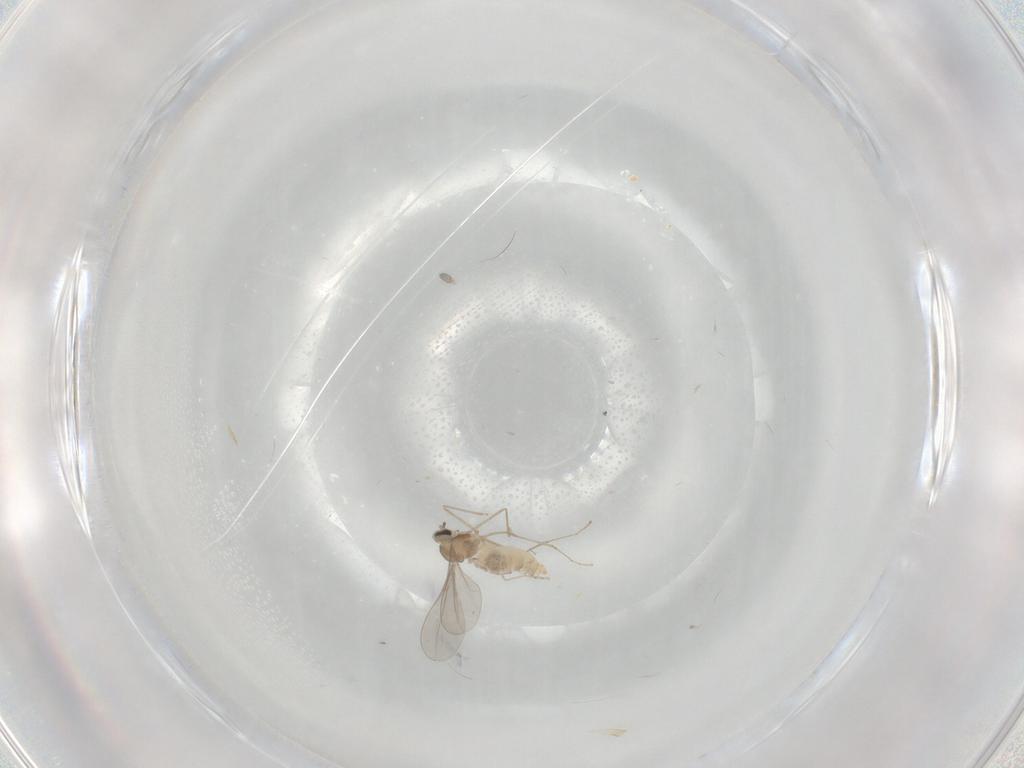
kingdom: Animalia
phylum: Arthropoda
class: Insecta
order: Diptera
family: Cecidomyiidae
